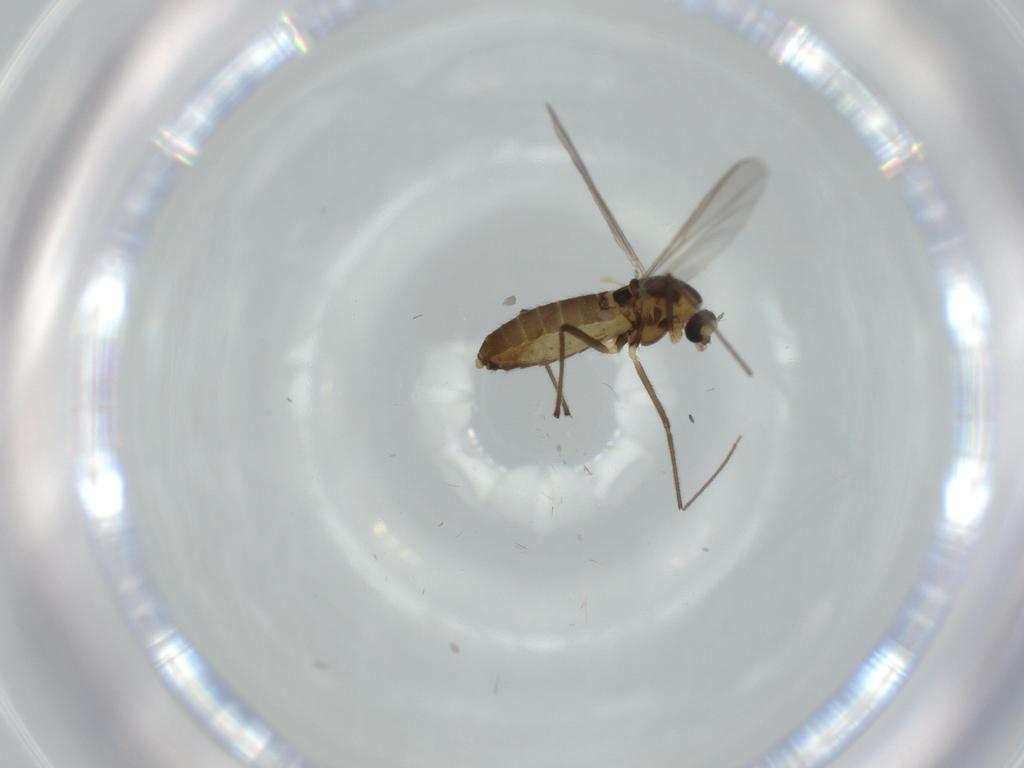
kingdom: Animalia
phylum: Arthropoda
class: Insecta
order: Diptera
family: Chironomidae
